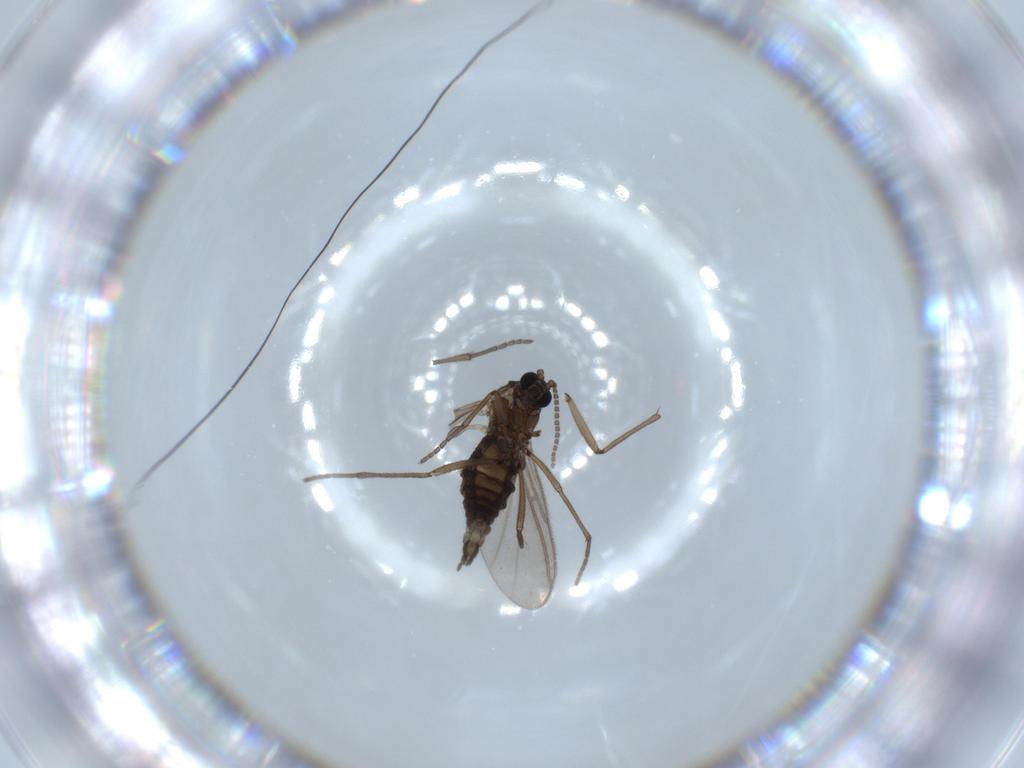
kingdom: Animalia
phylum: Arthropoda
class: Insecta
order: Diptera
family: Sciaridae
